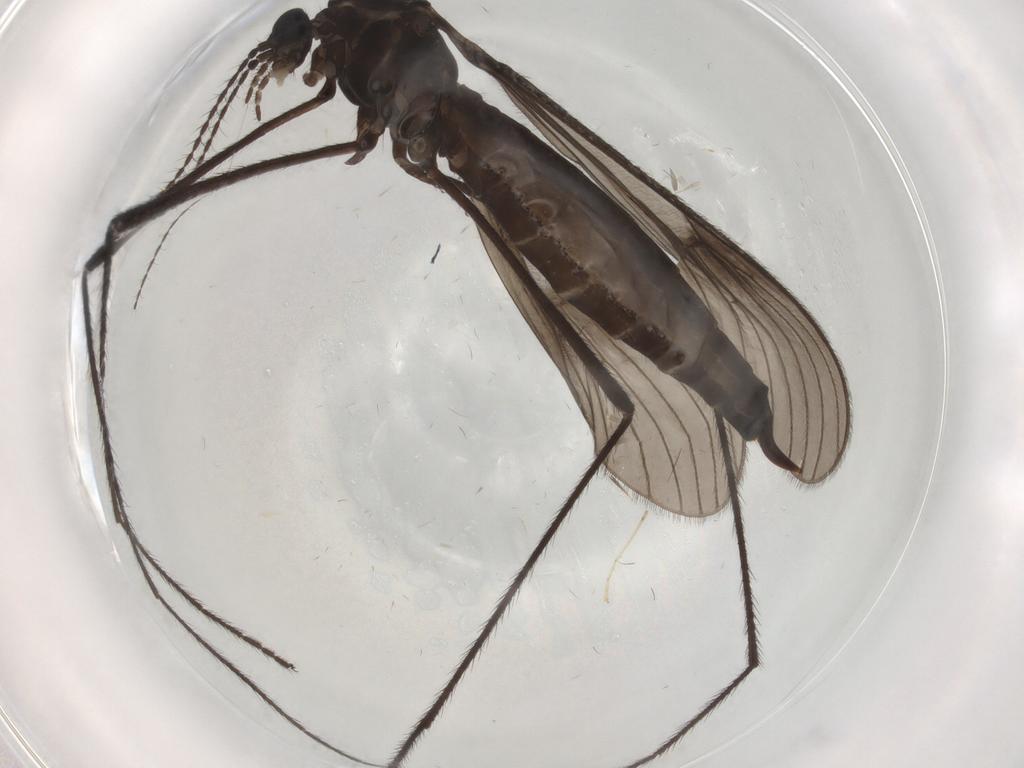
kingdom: Animalia
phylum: Arthropoda
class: Insecta
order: Diptera
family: Limoniidae
